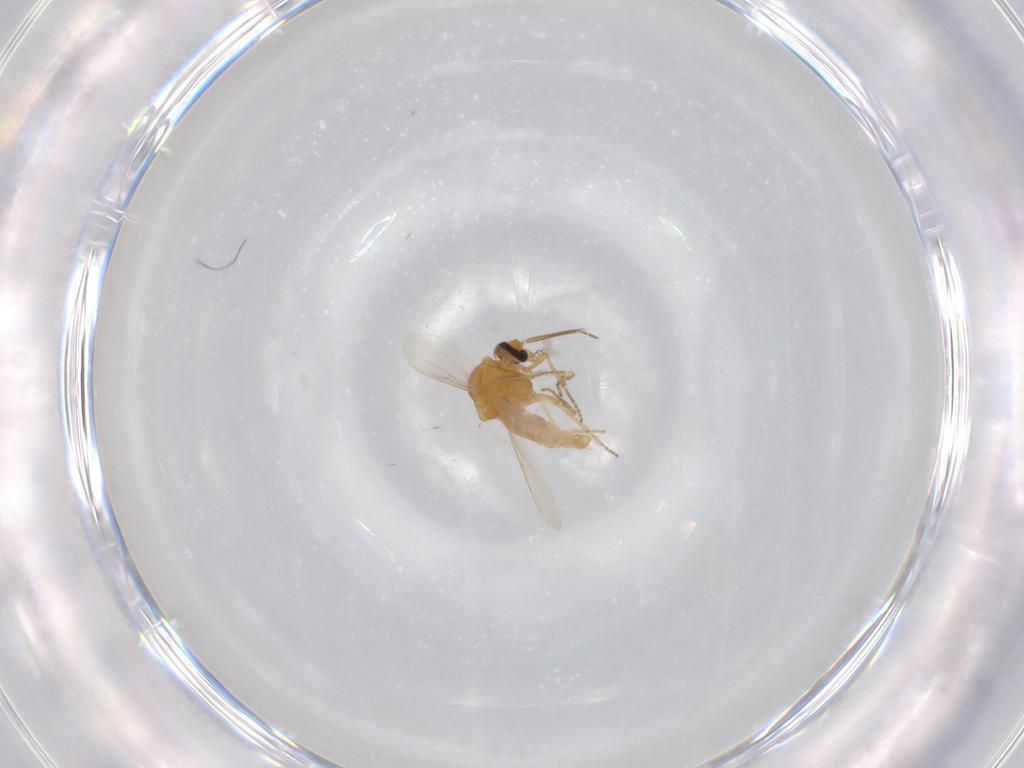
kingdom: Animalia
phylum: Arthropoda
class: Insecta
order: Diptera
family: Ceratopogonidae
